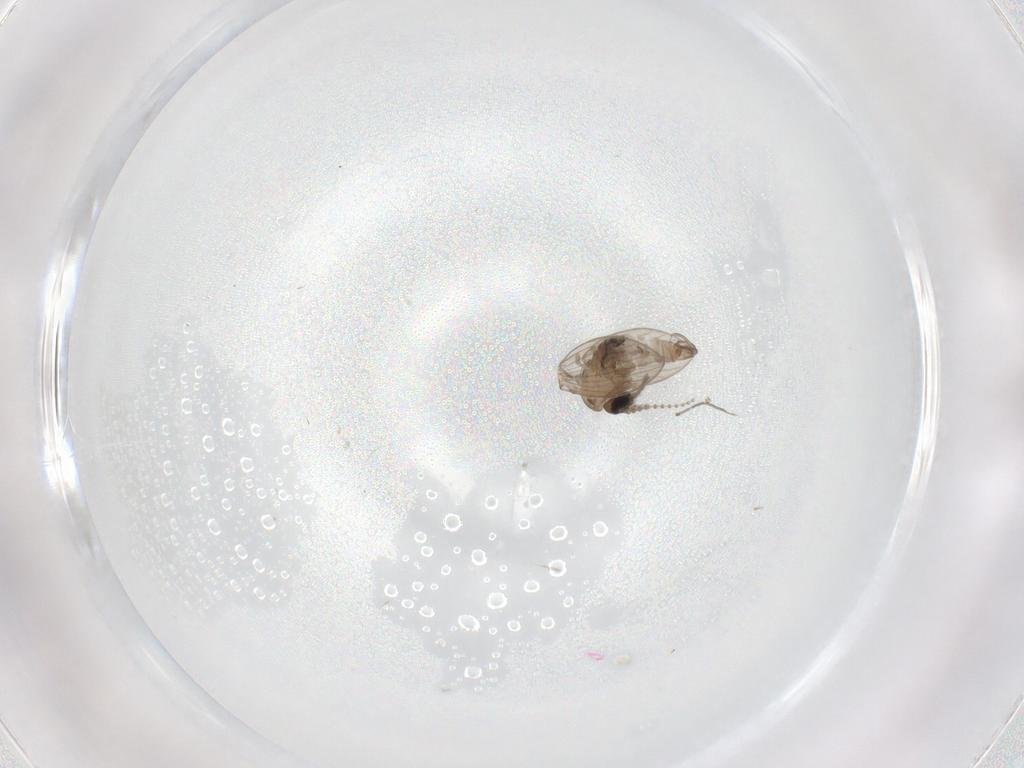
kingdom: Animalia
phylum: Arthropoda
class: Insecta
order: Diptera
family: Psychodidae
